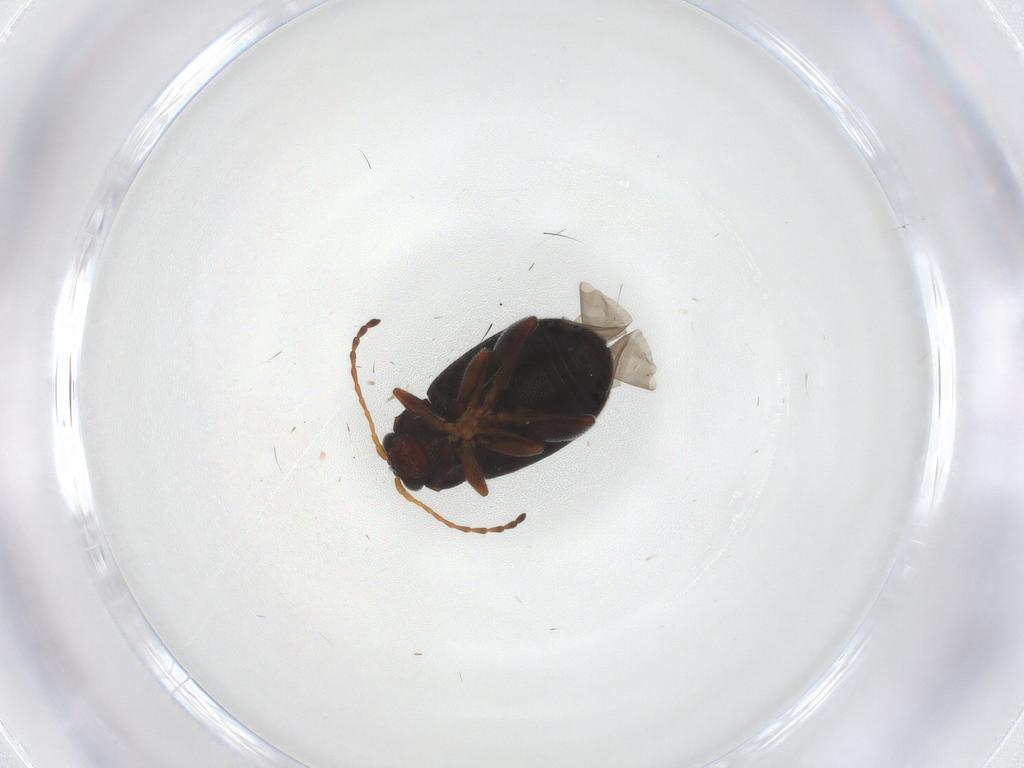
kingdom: Animalia
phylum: Arthropoda
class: Insecta
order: Coleoptera
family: Chrysomelidae
